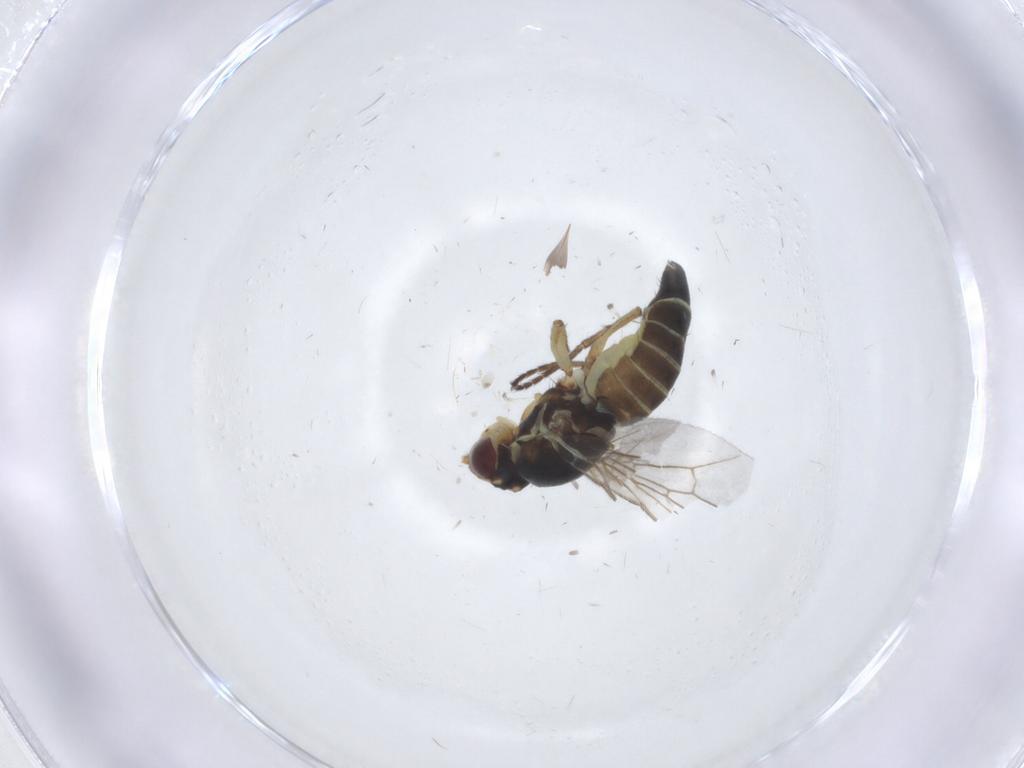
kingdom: Animalia
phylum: Arthropoda
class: Insecta
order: Diptera
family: Agromyzidae
